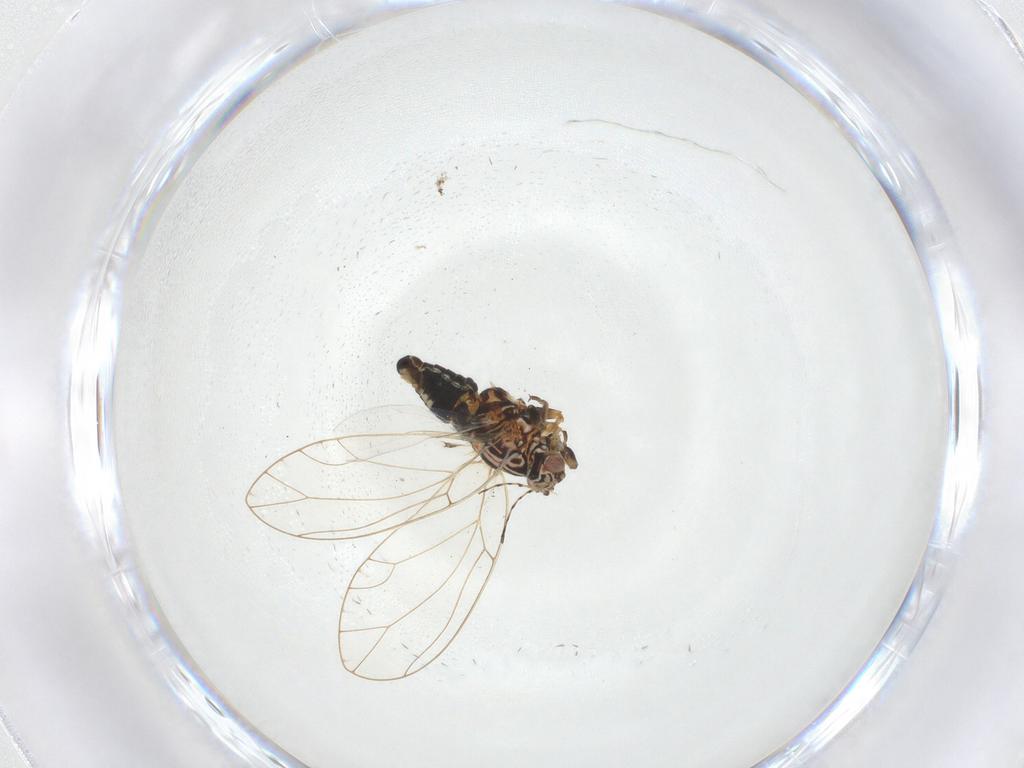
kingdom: Animalia
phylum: Arthropoda
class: Insecta
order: Hemiptera
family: Triozidae
